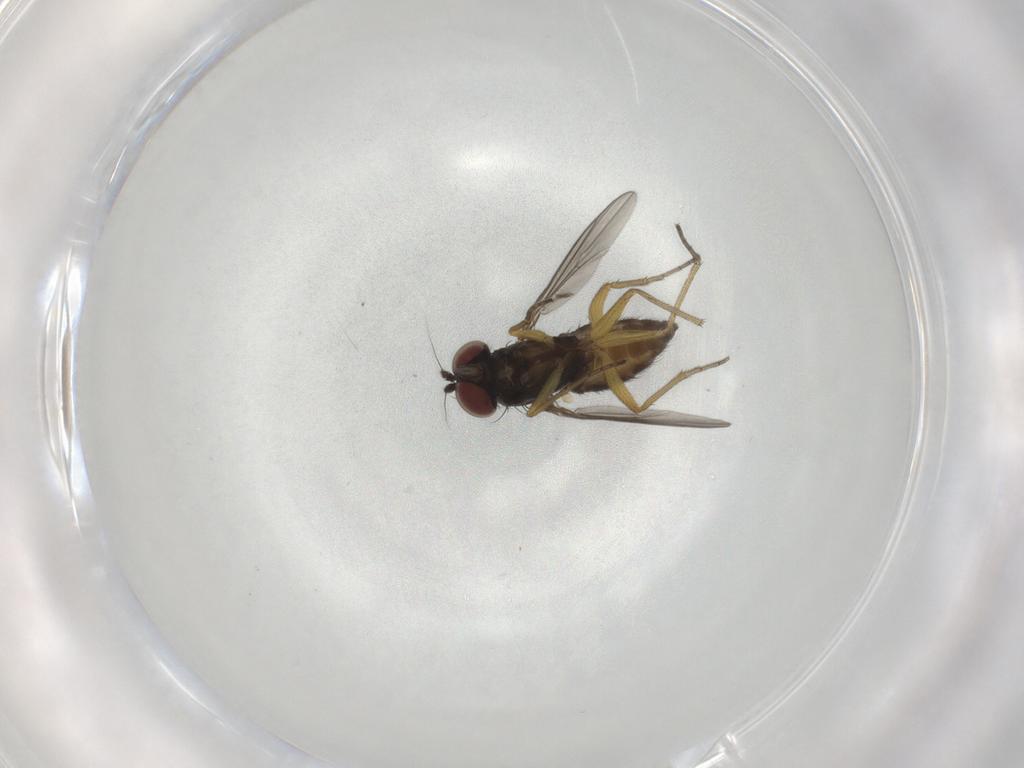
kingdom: Animalia
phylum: Arthropoda
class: Insecta
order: Diptera
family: Dolichopodidae
